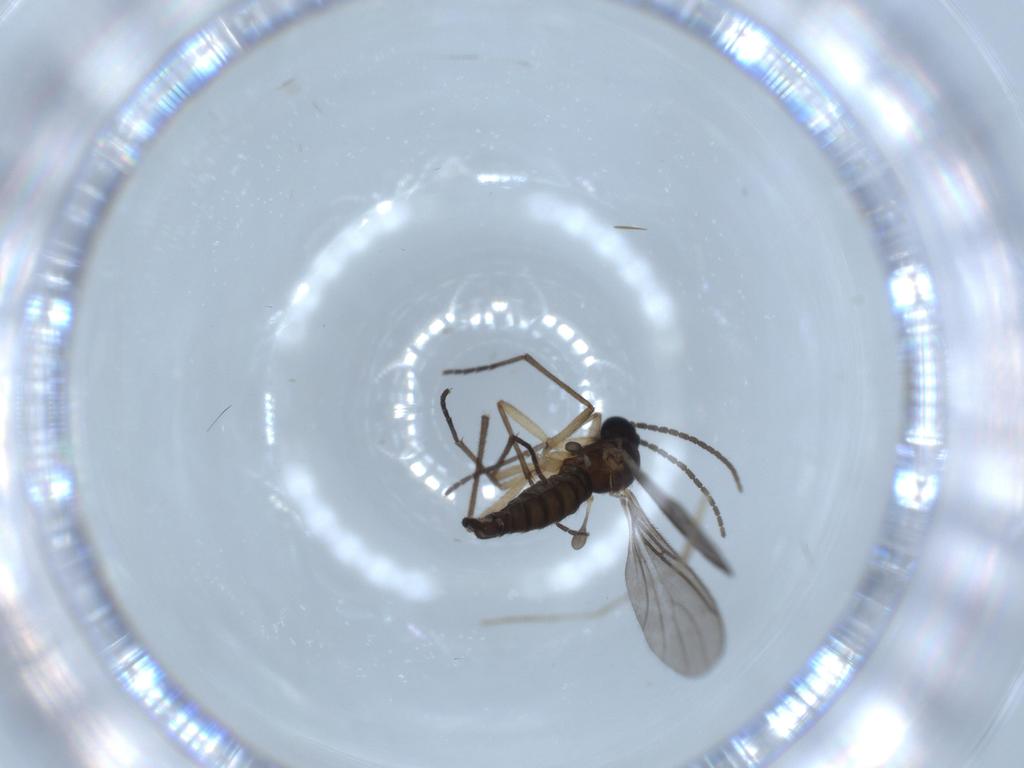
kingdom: Animalia
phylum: Arthropoda
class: Insecta
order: Diptera
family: Psychodidae
